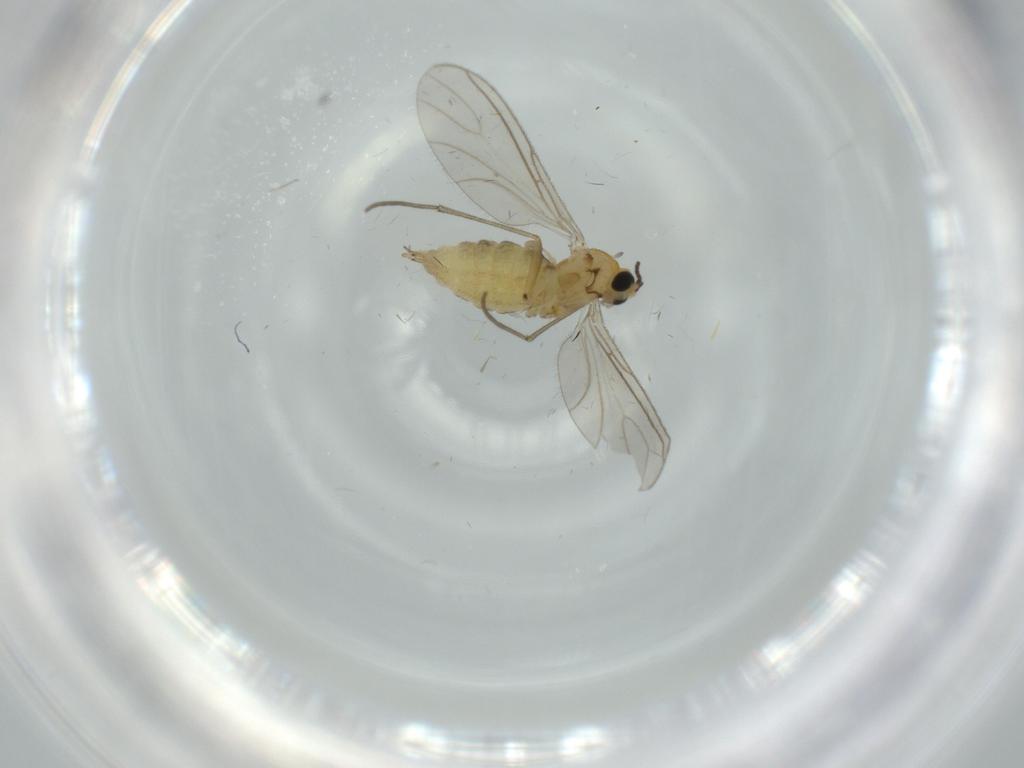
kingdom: Animalia
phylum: Arthropoda
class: Insecta
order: Diptera
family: Sciaridae
